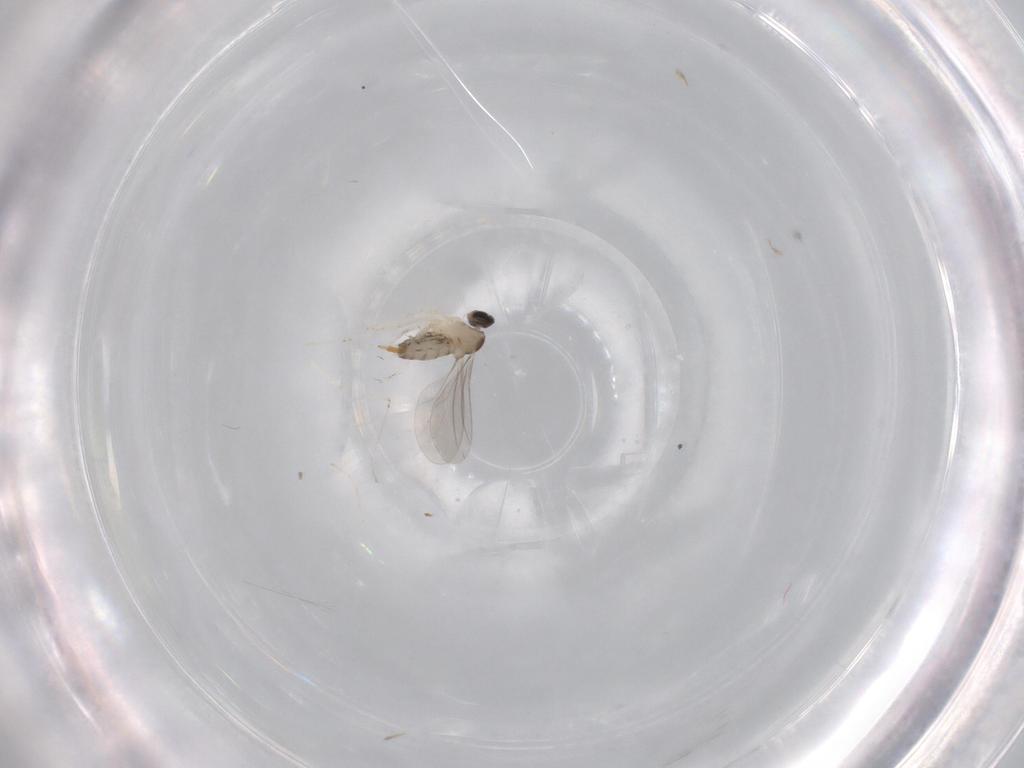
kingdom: Animalia
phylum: Arthropoda
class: Insecta
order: Diptera
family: Cecidomyiidae
